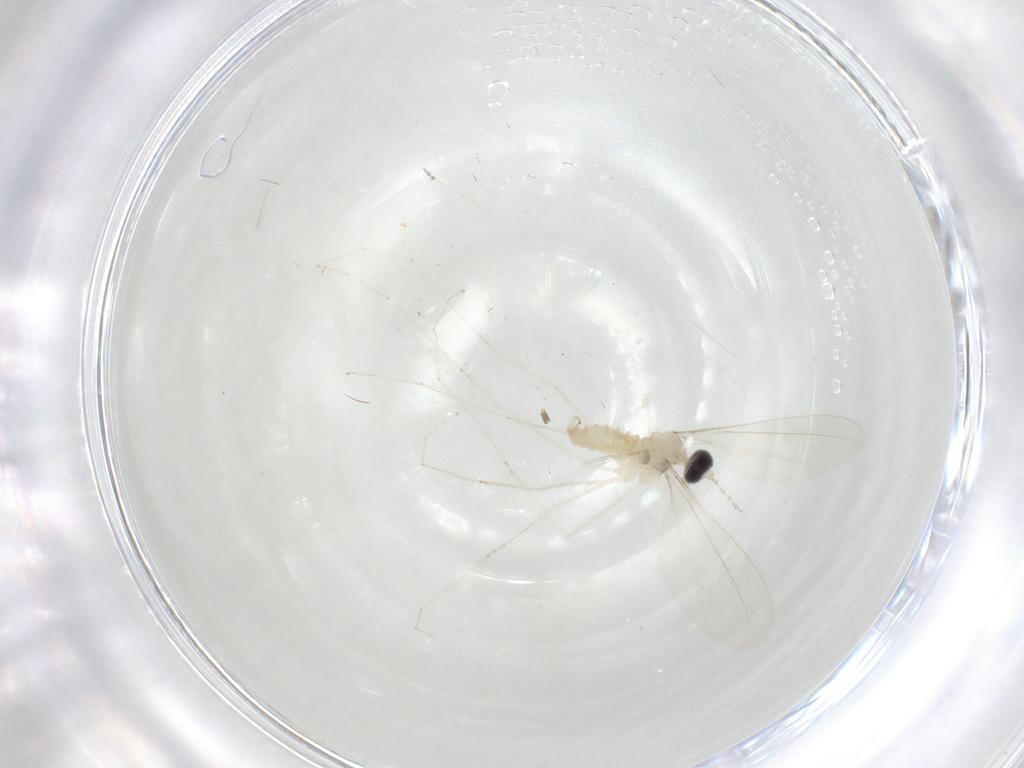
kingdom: Animalia
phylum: Arthropoda
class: Insecta
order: Diptera
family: Cecidomyiidae
